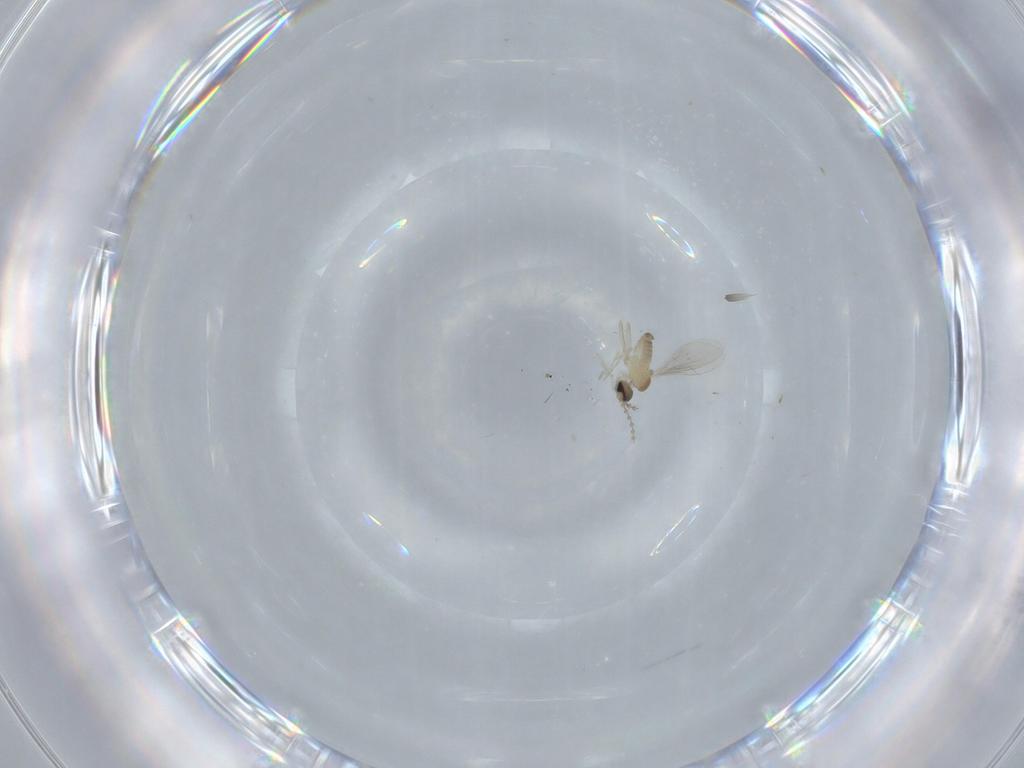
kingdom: Animalia
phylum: Arthropoda
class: Insecta
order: Diptera
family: Cecidomyiidae
